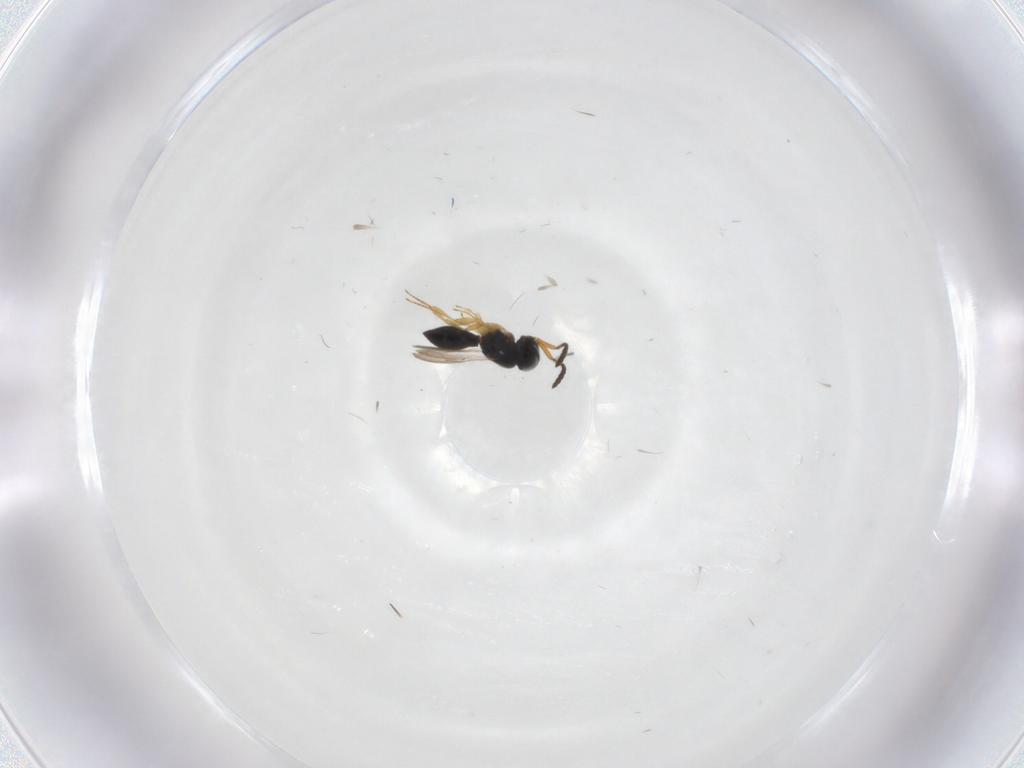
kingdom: Animalia
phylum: Arthropoda
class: Insecta
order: Hymenoptera
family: Scelionidae
